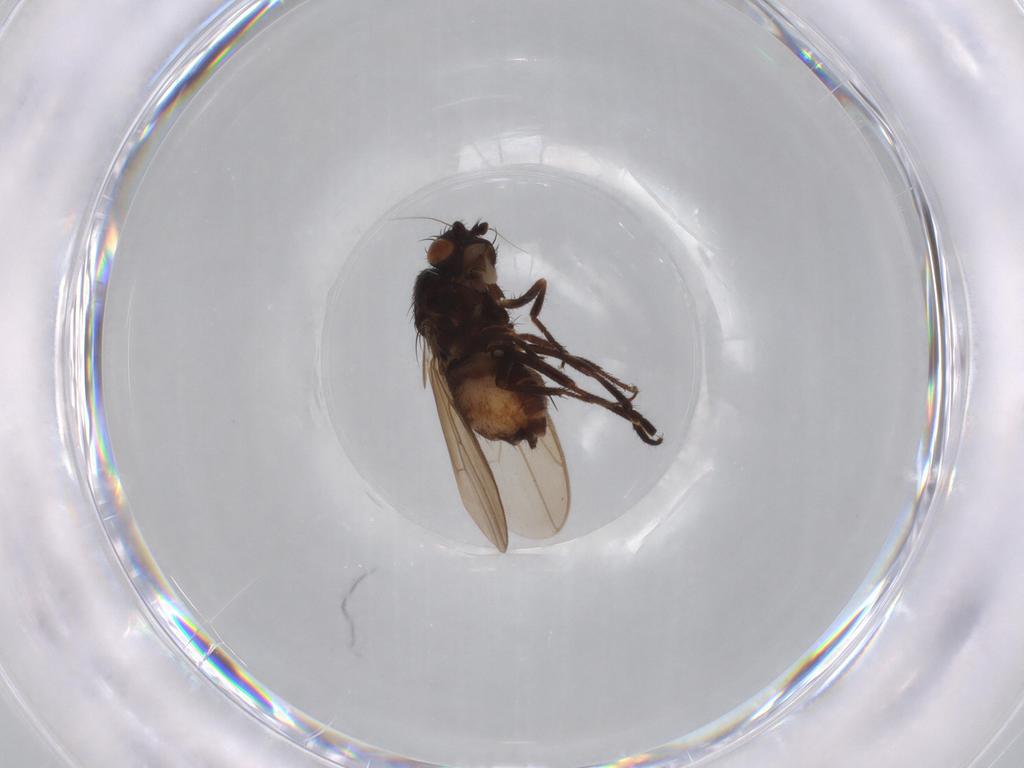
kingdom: Animalia
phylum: Arthropoda
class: Insecta
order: Diptera
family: Sphaeroceridae
